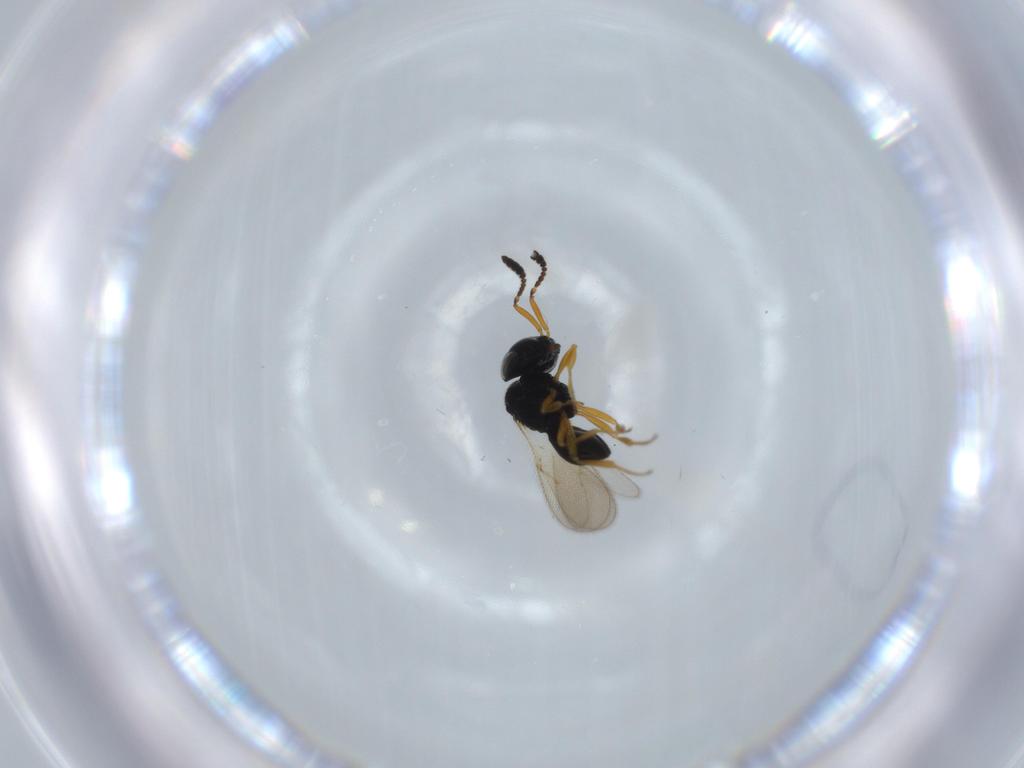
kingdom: Animalia
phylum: Arthropoda
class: Insecta
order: Hymenoptera
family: Scelionidae
